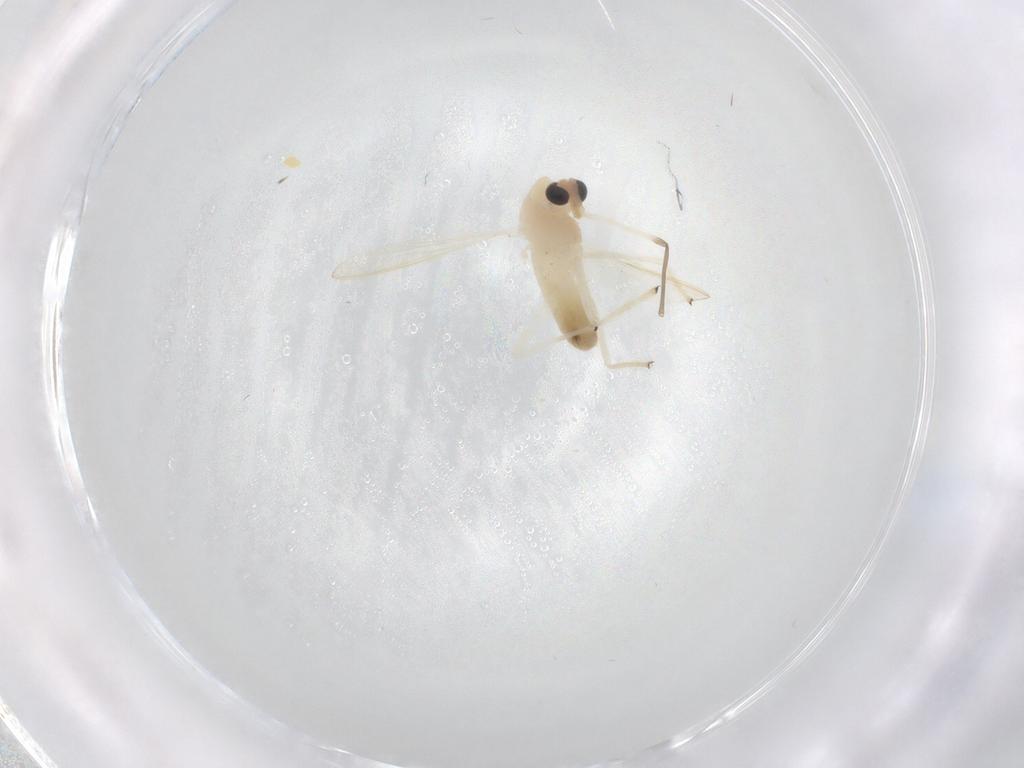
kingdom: Animalia
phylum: Arthropoda
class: Insecta
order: Diptera
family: Chironomidae
